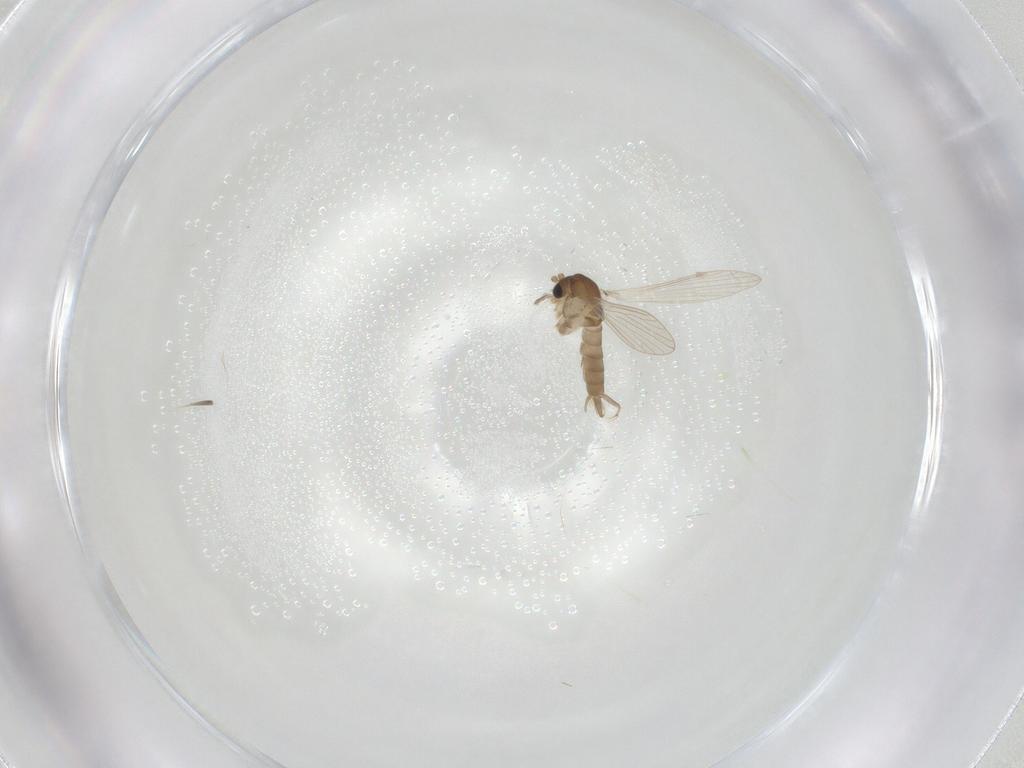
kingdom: Animalia
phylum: Arthropoda
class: Insecta
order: Diptera
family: Psychodidae
